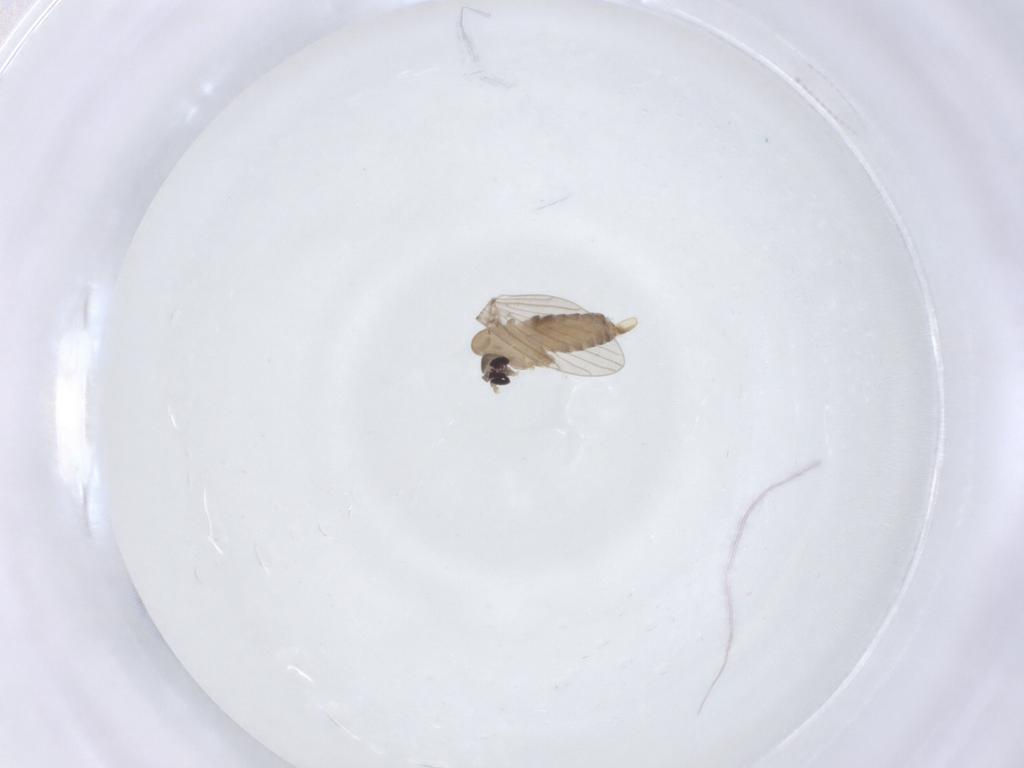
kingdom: Animalia
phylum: Arthropoda
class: Insecta
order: Diptera
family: Psychodidae
